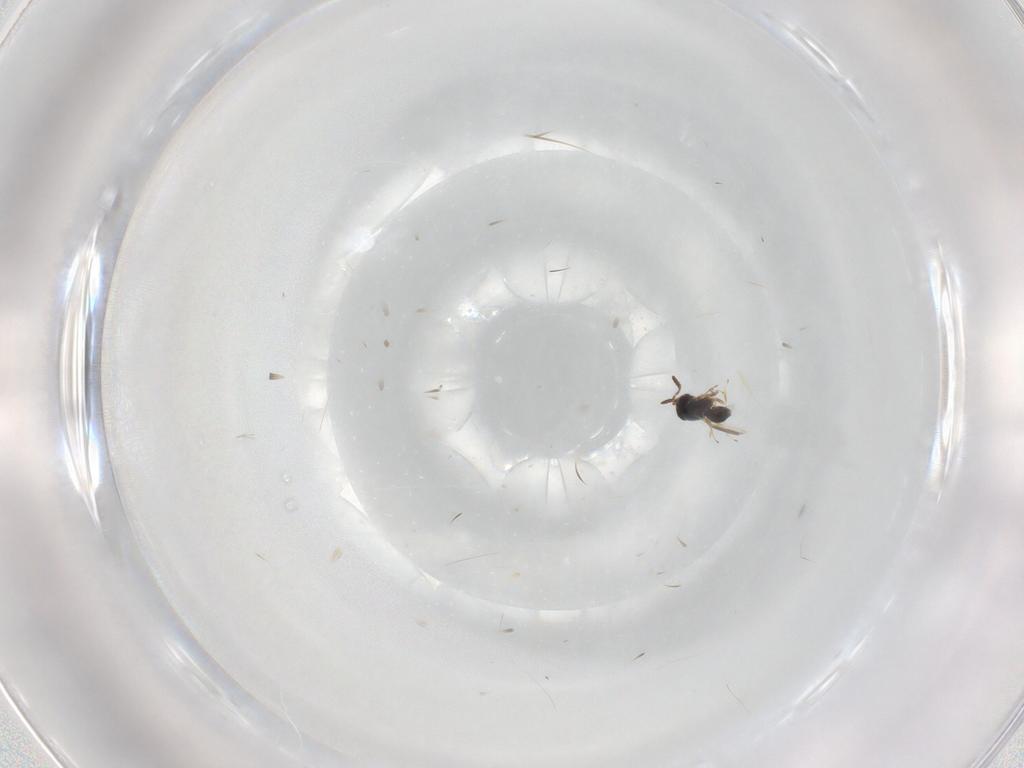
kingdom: Animalia
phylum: Arthropoda
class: Insecta
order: Hymenoptera
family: Scelionidae
